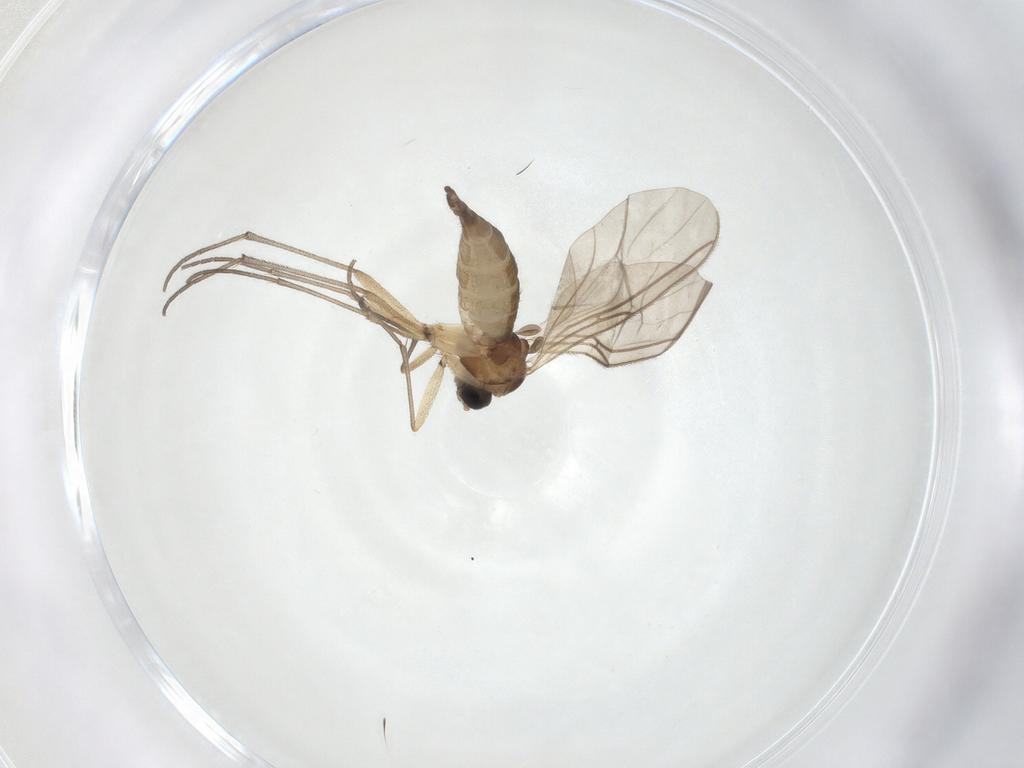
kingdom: Animalia
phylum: Arthropoda
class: Insecta
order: Diptera
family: Sciaridae
